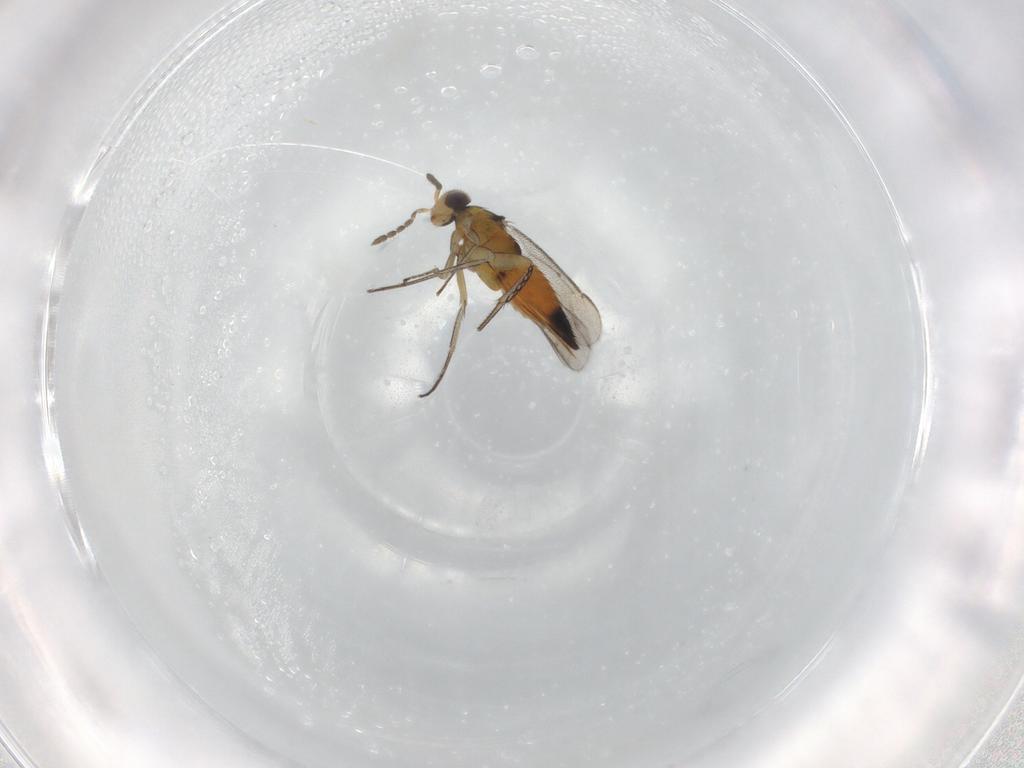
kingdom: Animalia
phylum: Arthropoda
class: Insecta
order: Hymenoptera
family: Eulophidae
